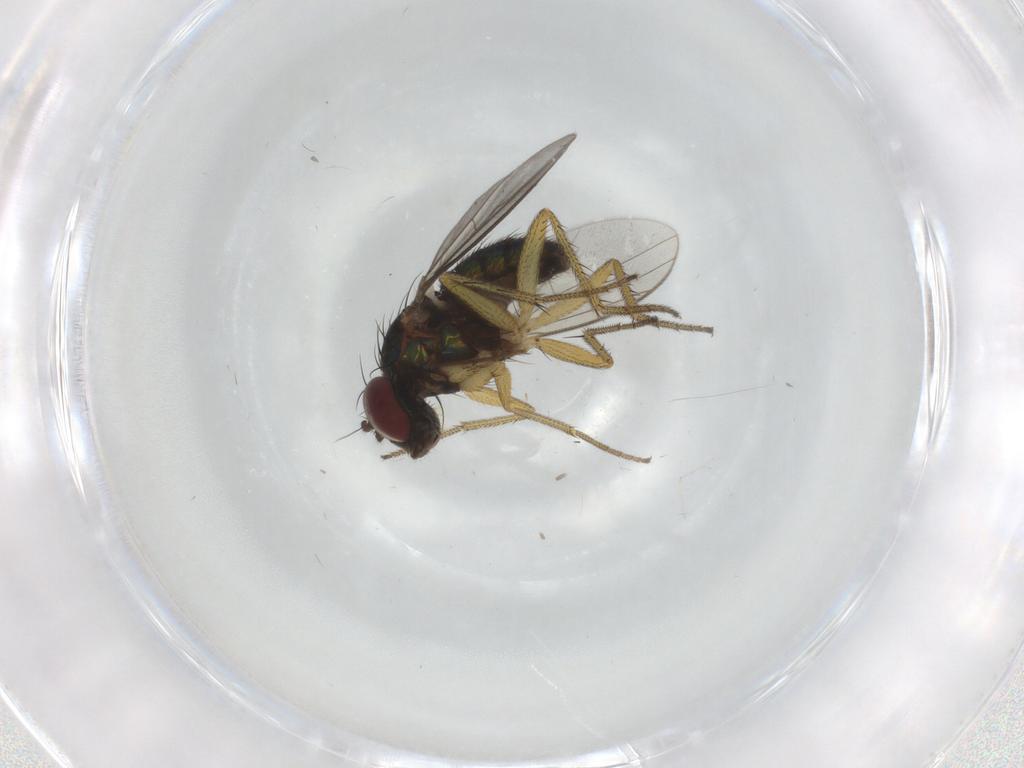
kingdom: Animalia
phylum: Arthropoda
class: Insecta
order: Diptera
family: Chironomidae
